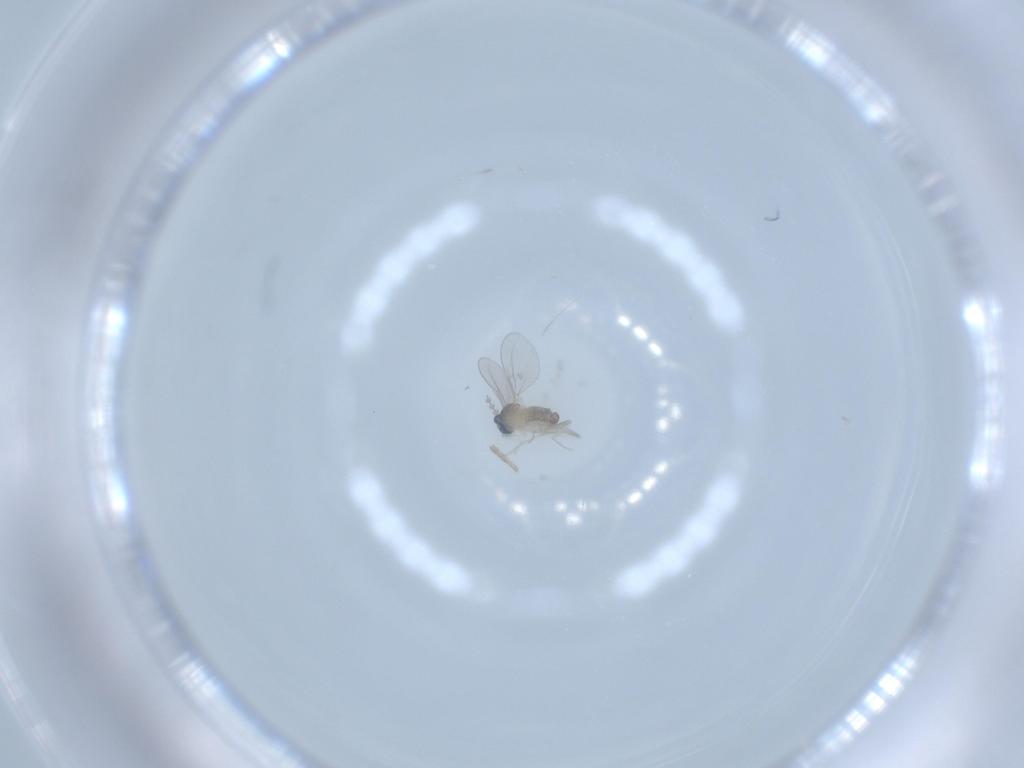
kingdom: Animalia
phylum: Arthropoda
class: Insecta
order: Diptera
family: Cecidomyiidae
